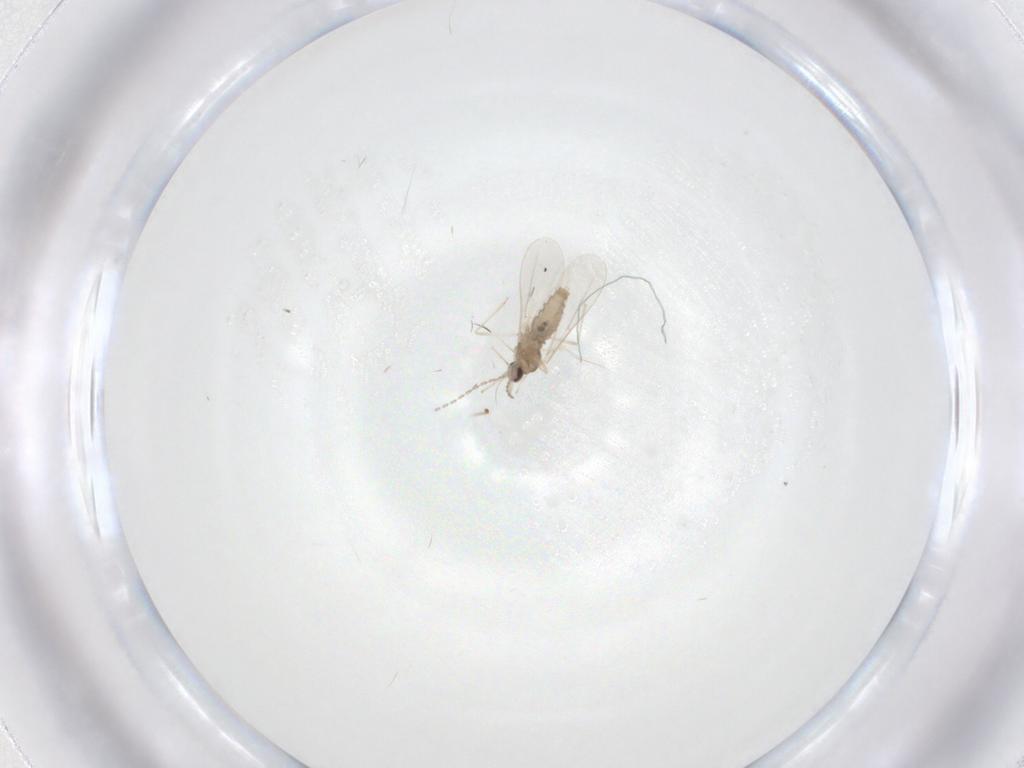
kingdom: Animalia
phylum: Arthropoda
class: Insecta
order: Diptera
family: Cecidomyiidae
